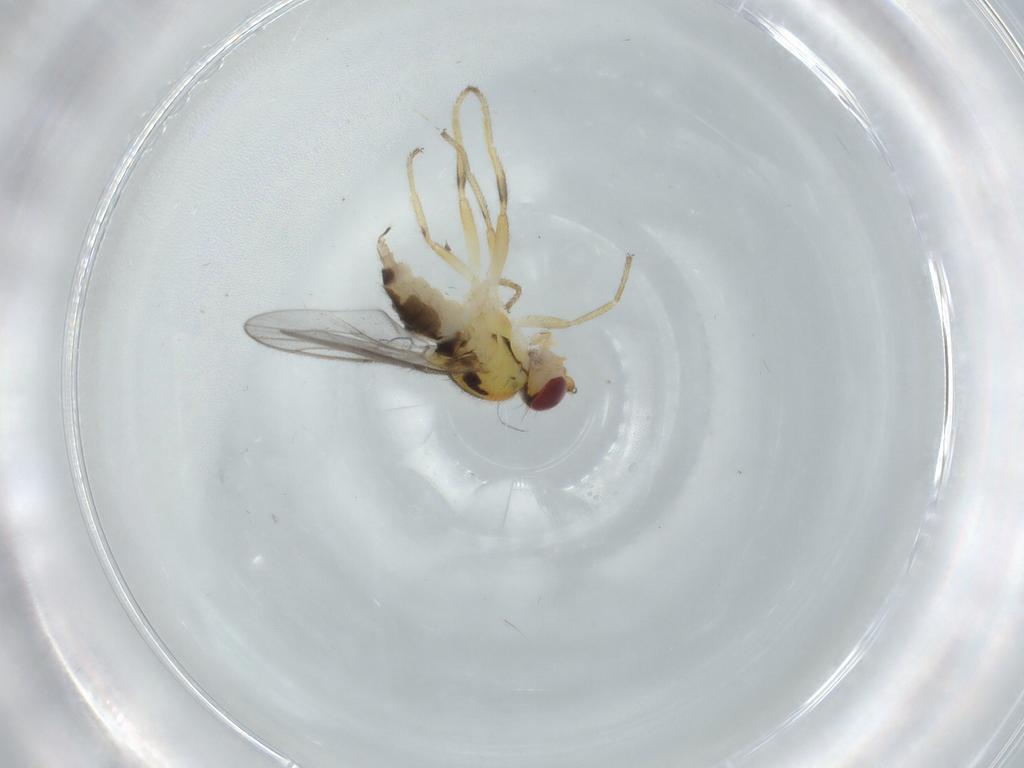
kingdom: Animalia
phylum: Arthropoda
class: Insecta
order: Diptera
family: Chloropidae
